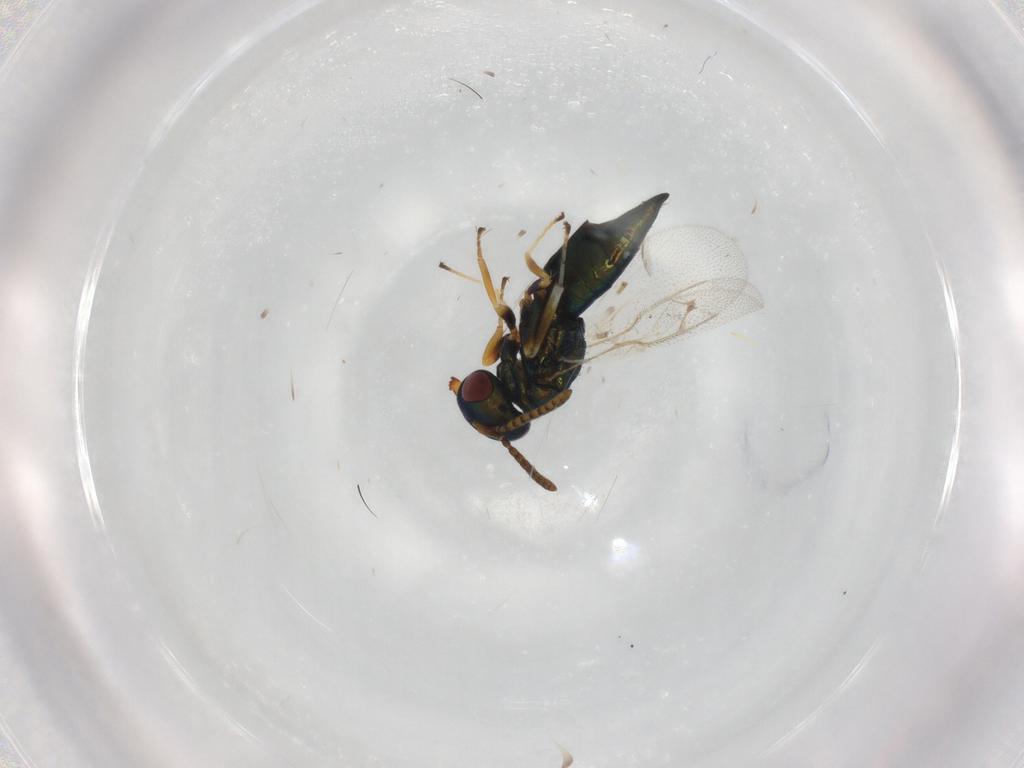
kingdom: Animalia
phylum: Arthropoda
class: Insecta
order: Hymenoptera
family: Pteromalidae
